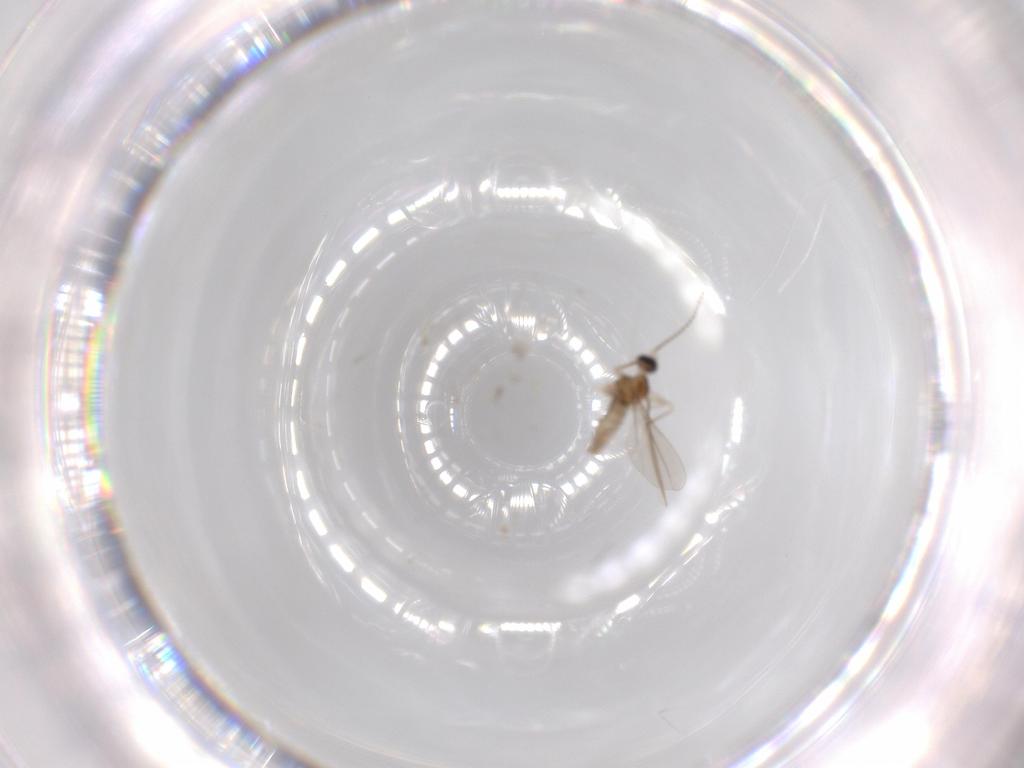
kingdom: Animalia
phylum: Arthropoda
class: Insecta
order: Diptera
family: Cecidomyiidae
